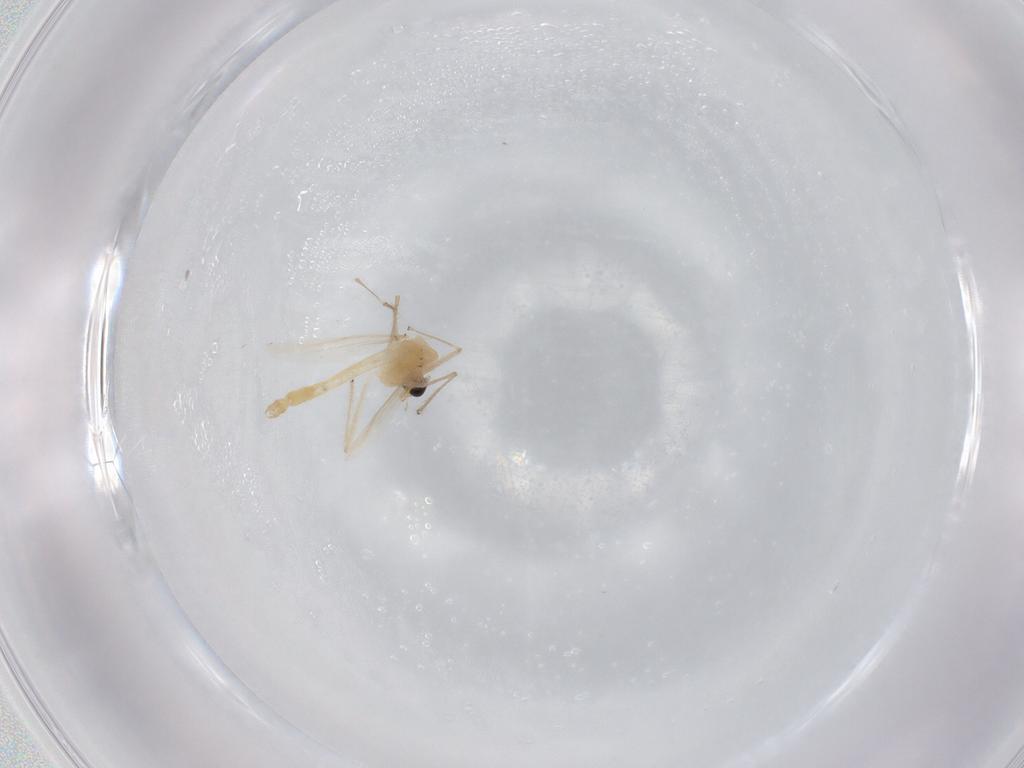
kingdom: Animalia
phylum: Arthropoda
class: Insecta
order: Diptera
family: Chironomidae
